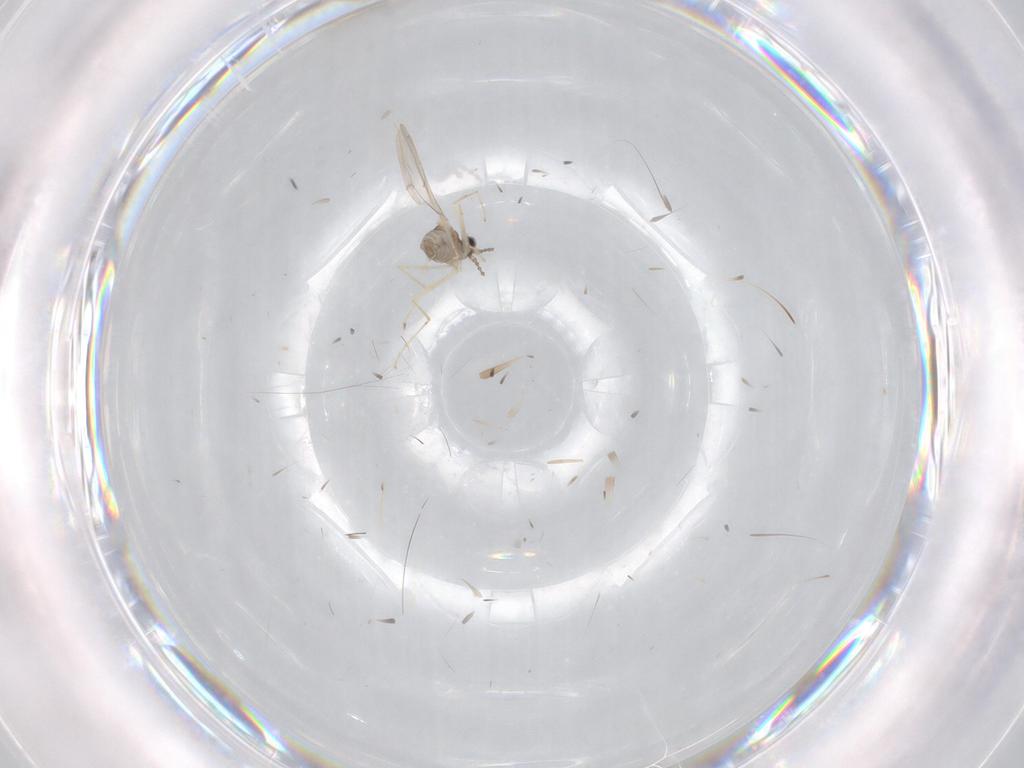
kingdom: Animalia
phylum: Arthropoda
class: Insecta
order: Diptera
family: Cecidomyiidae
